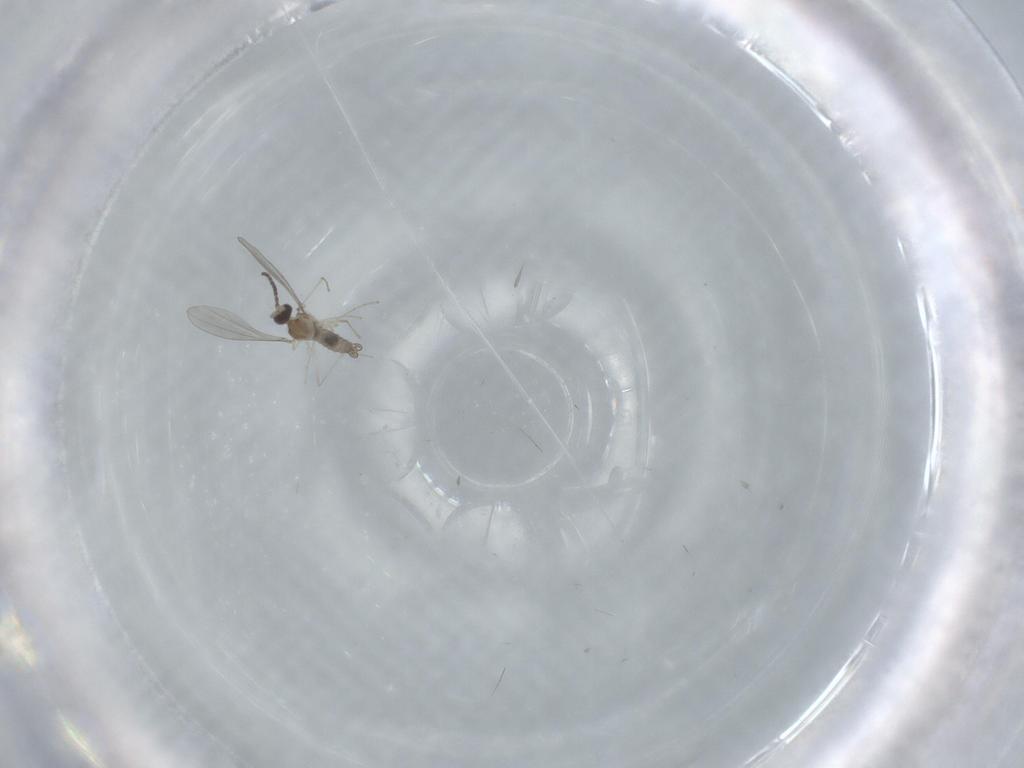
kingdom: Animalia
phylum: Arthropoda
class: Insecta
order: Diptera
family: Cecidomyiidae
